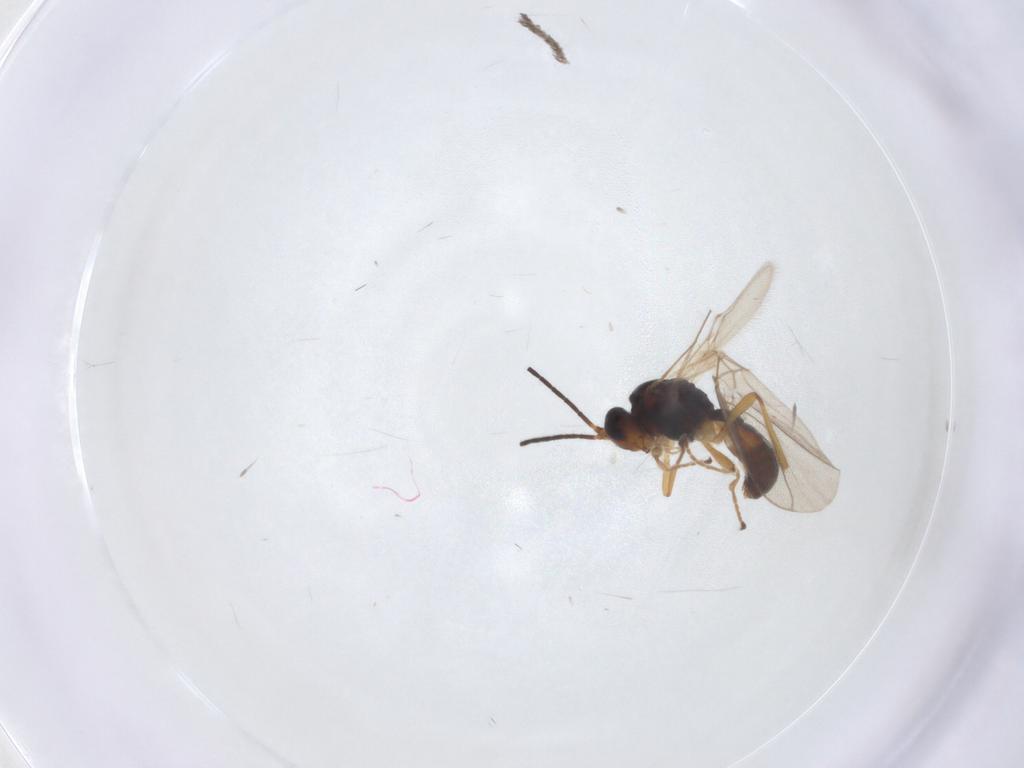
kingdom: Animalia
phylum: Arthropoda
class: Insecta
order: Hymenoptera
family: Braconidae
